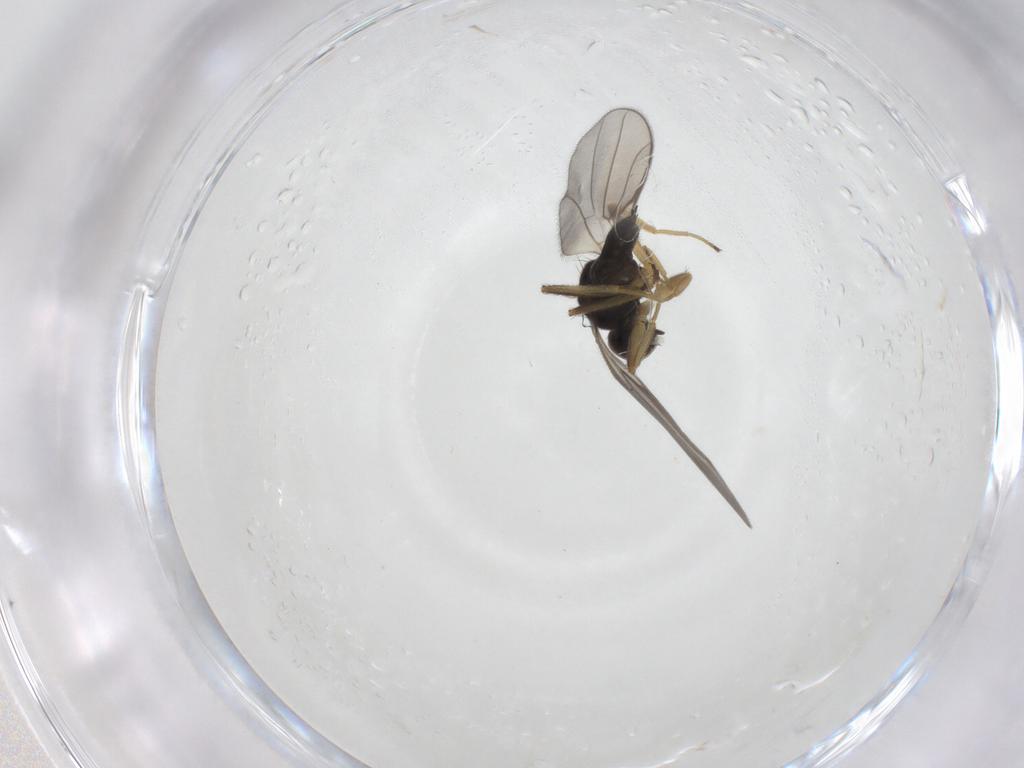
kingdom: Animalia
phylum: Arthropoda
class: Insecta
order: Diptera
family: Hybotidae
